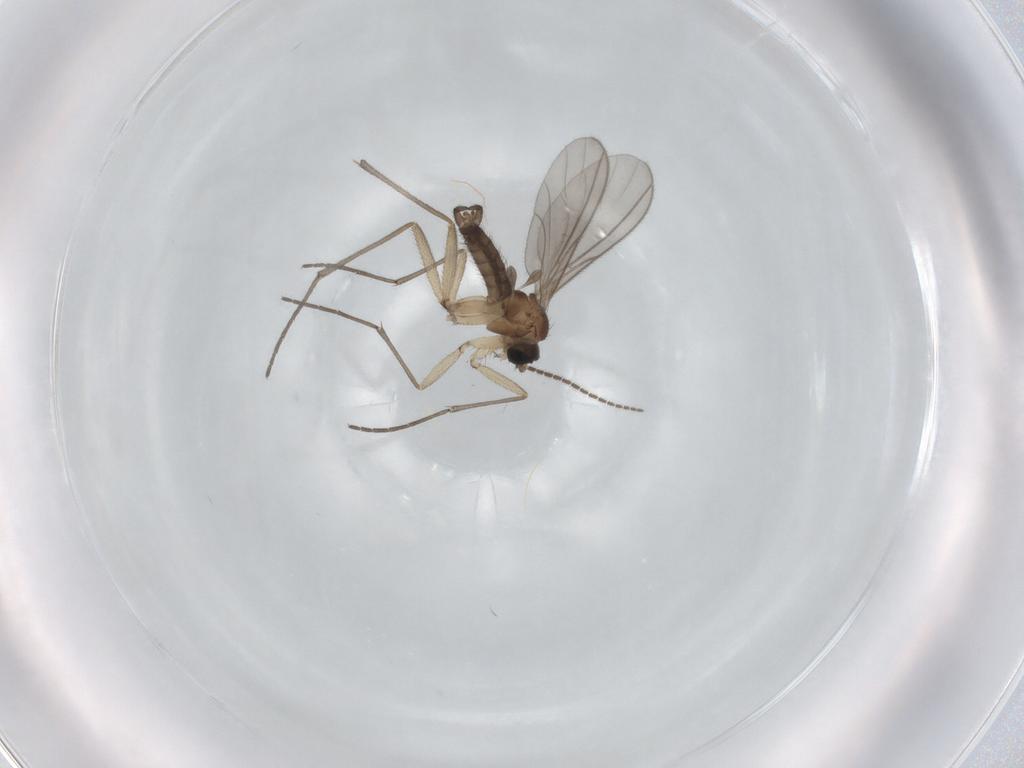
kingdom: Animalia
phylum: Arthropoda
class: Insecta
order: Diptera
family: Sciaridae
